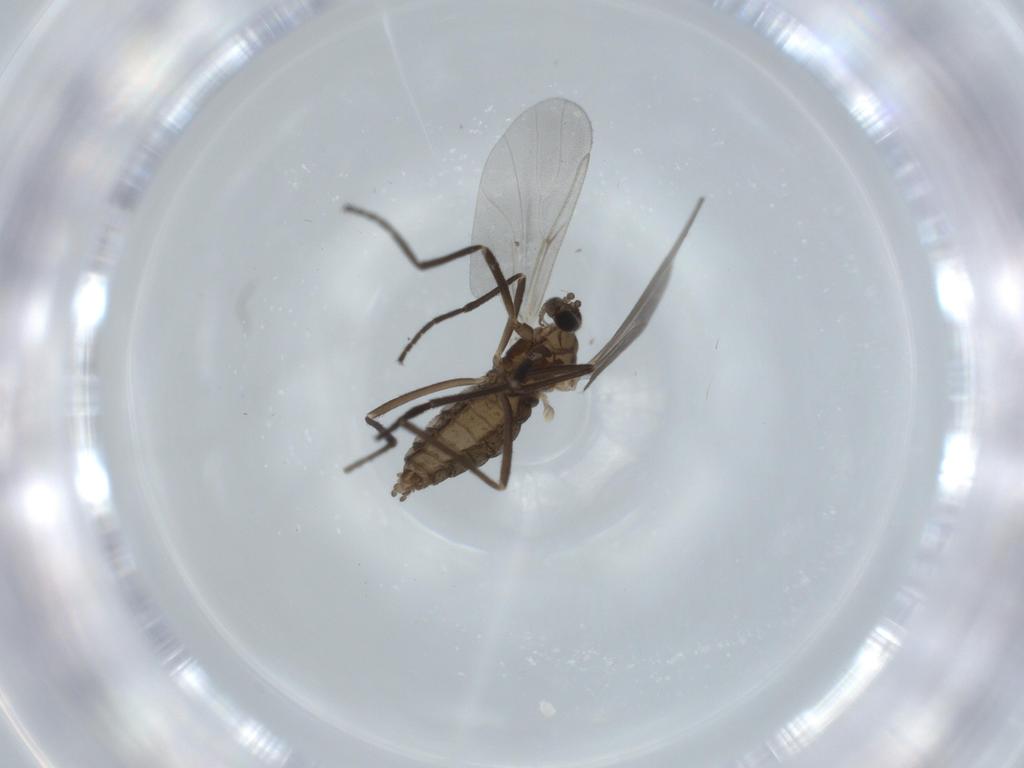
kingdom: Animalia
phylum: Arthropoda
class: Insecta
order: Diptera
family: Cecidomyiidae
